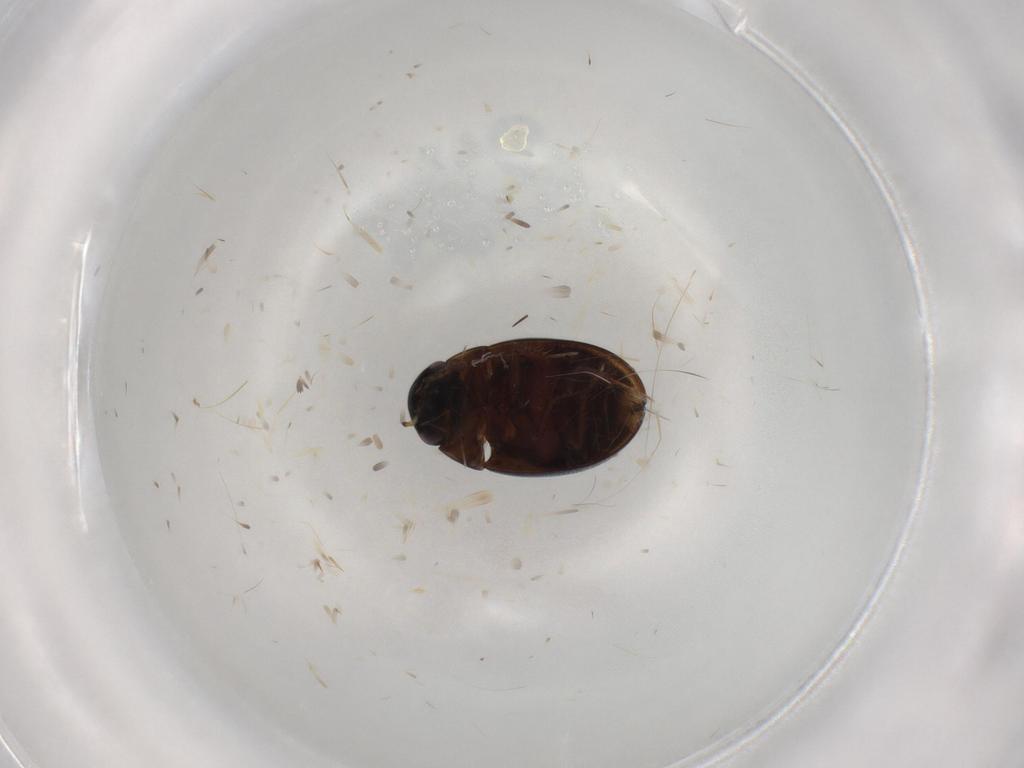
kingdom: Animalia
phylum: Arthropoda
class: Insecta
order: Coleoptera
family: Hydrophilidae
